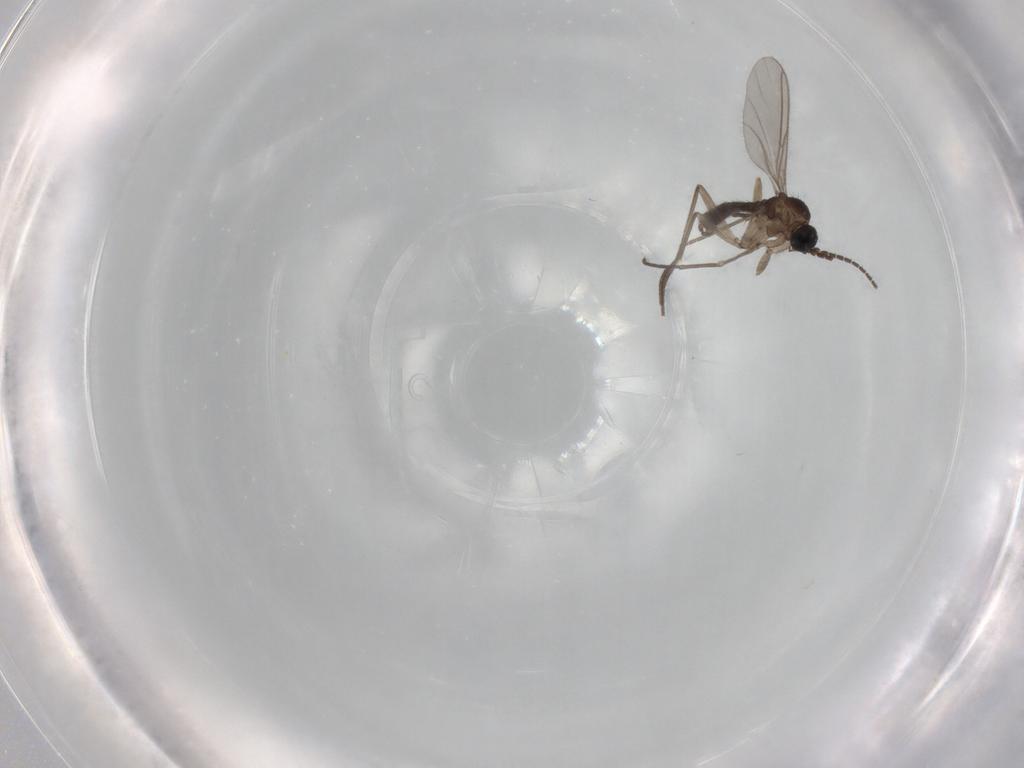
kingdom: Animalia
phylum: Arthropoda
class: Insecta
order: Diptera
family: Sciaridae
